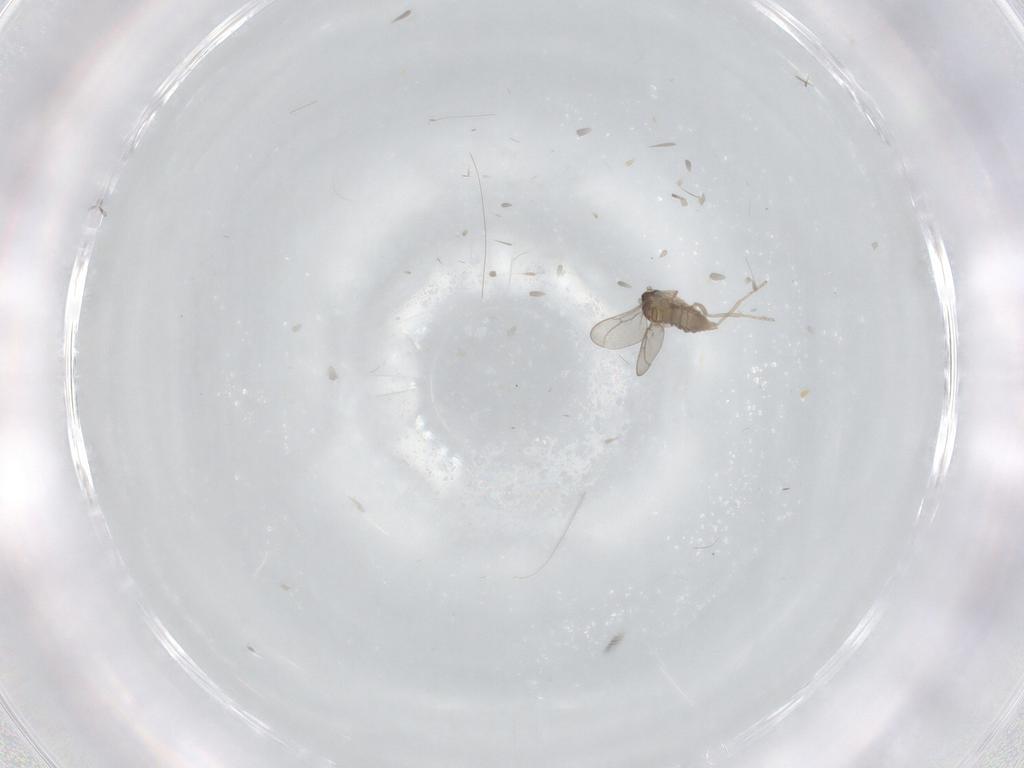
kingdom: Animalia
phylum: Arthropoda
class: Insecta
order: Diptera
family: Cecidomyiidae
